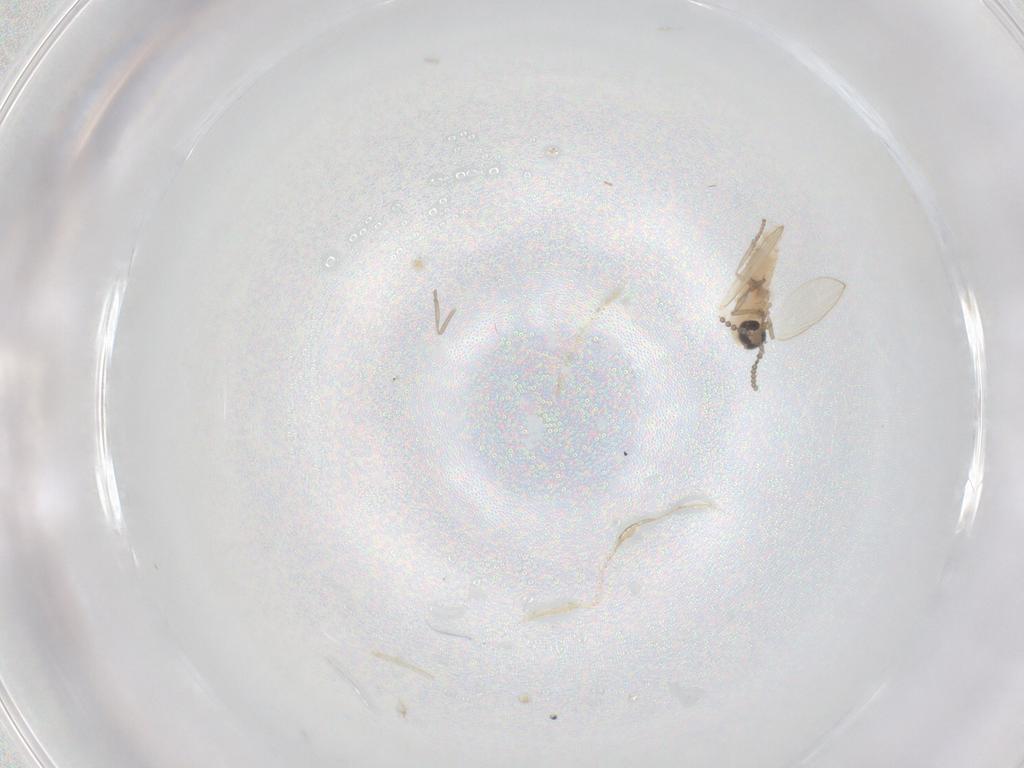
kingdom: Animalia
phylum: Arthropoda
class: Insecta
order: Diptera
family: Psychodidae
